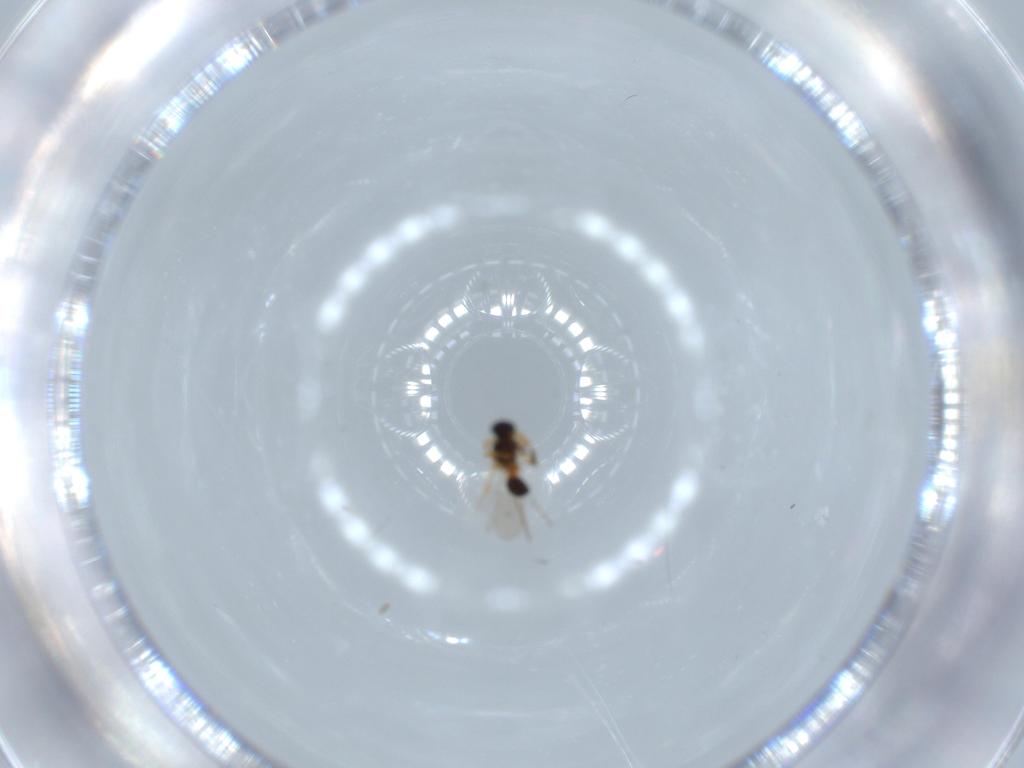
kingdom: Animalia
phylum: Arthropoda
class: Insecta
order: Hymenoptera
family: Platygastridae
